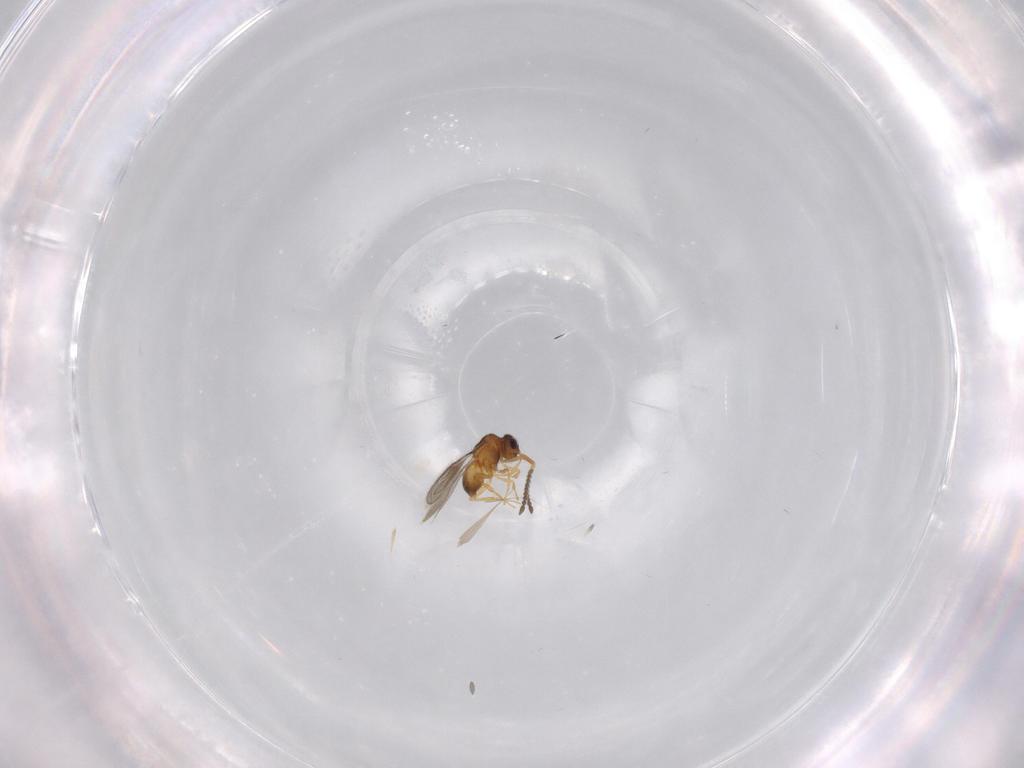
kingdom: Animalia
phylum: Arthropoda
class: Insecta
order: Hymenoptera
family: Ceraphronidae
